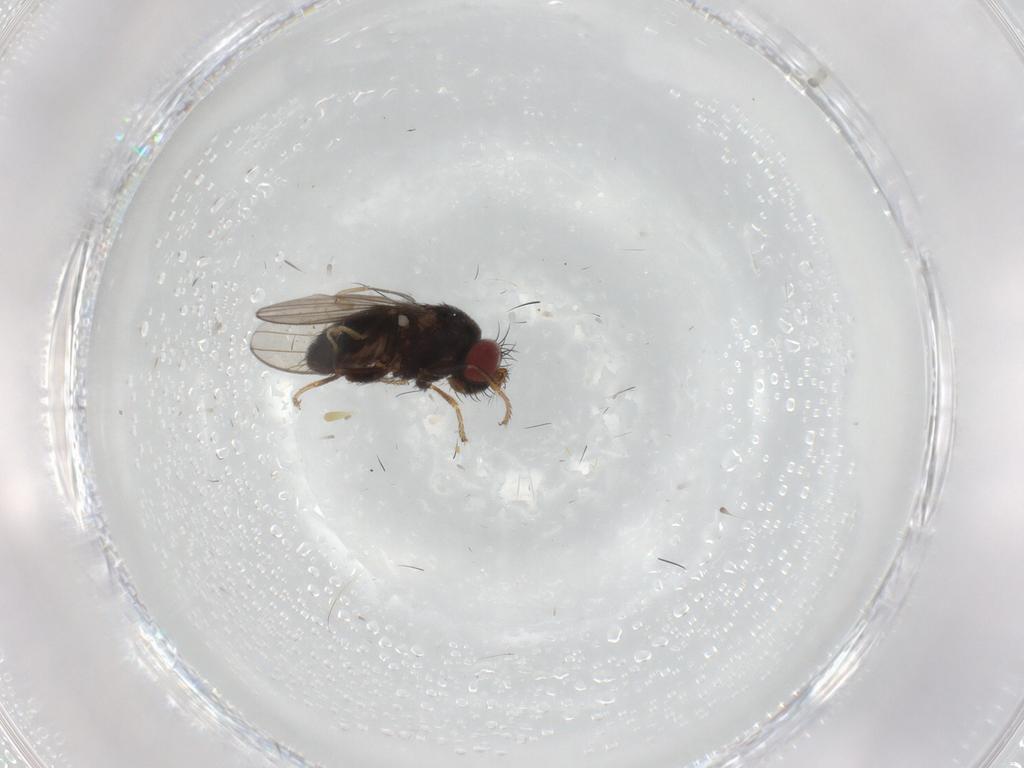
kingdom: Animalia
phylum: Arthropoda
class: Insecta
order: Diptera
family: Ephydridae
